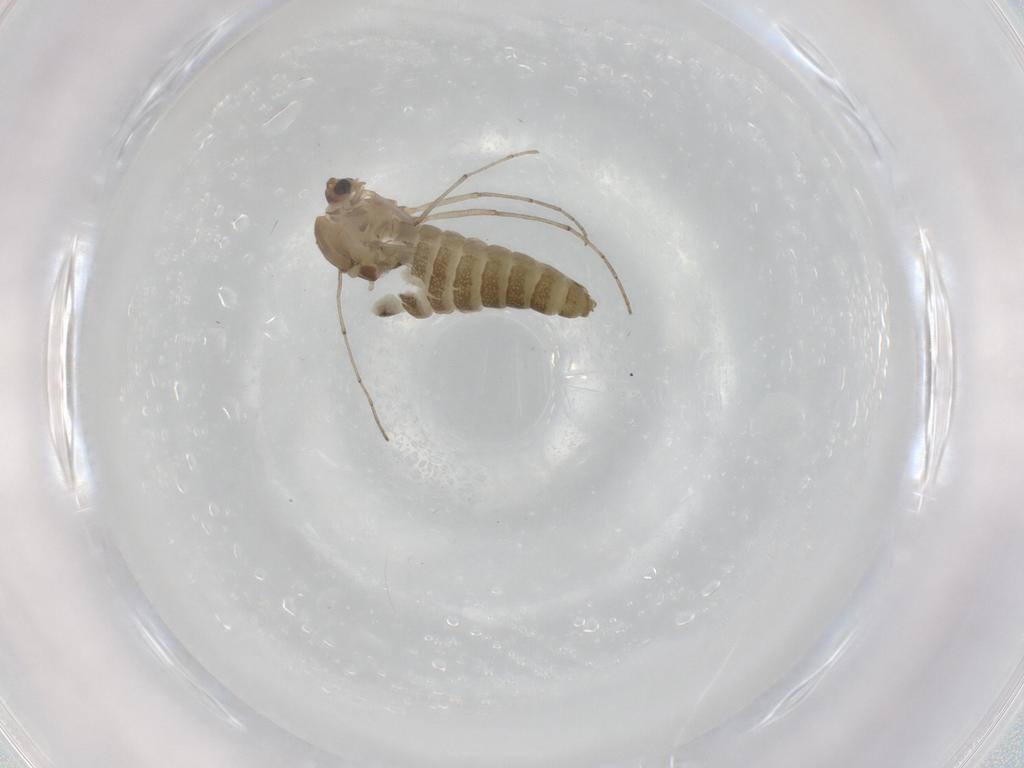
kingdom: Animalia
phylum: Arthropoda
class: Insecta
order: Diptera
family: Chironomidae
